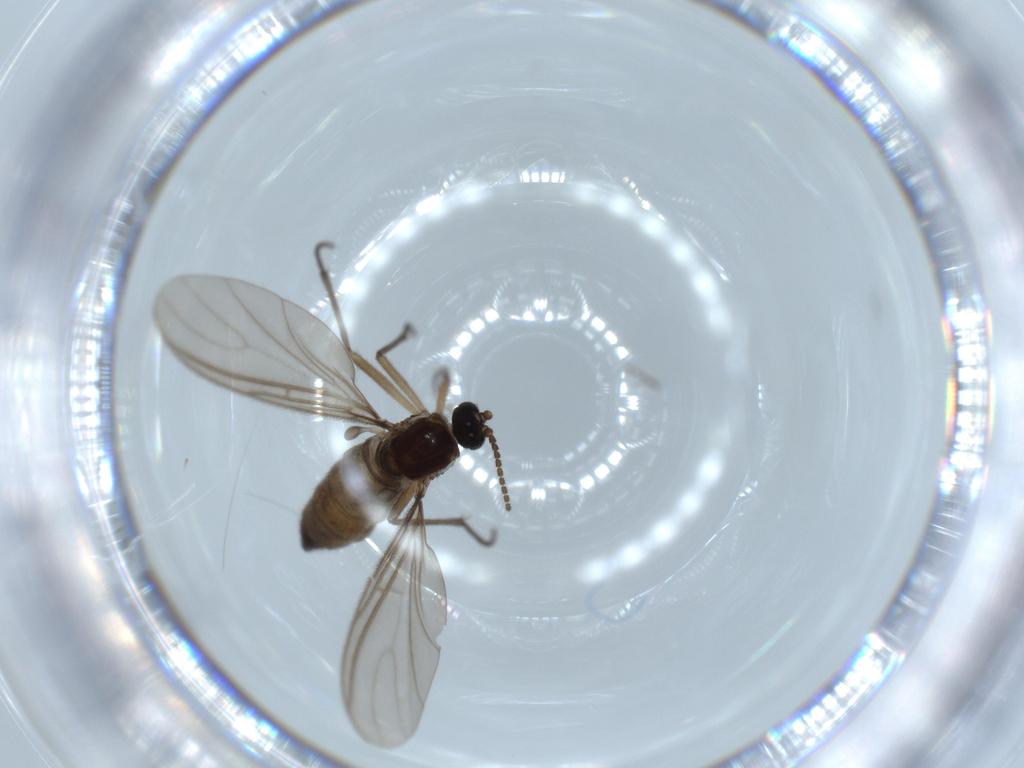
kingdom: Animalia
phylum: Arthropoda
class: Insecta
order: Diptera
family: Sciaridae
